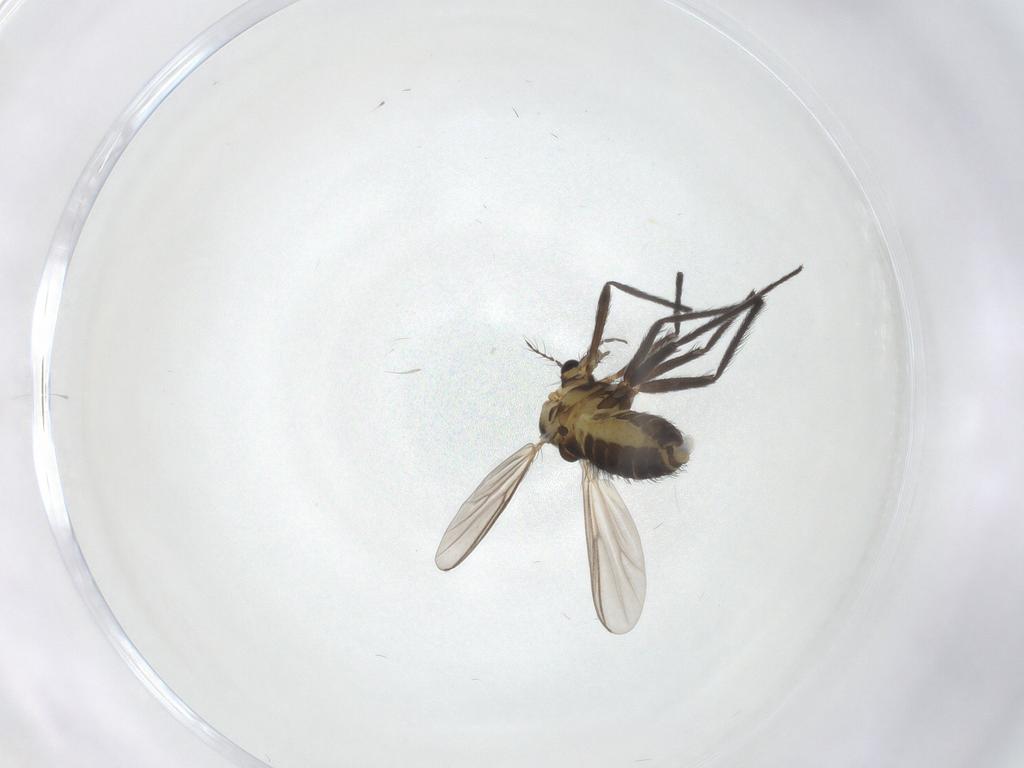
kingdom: Animalia
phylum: Arthropoda
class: Insecta
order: Diptera
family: Chironomidae
